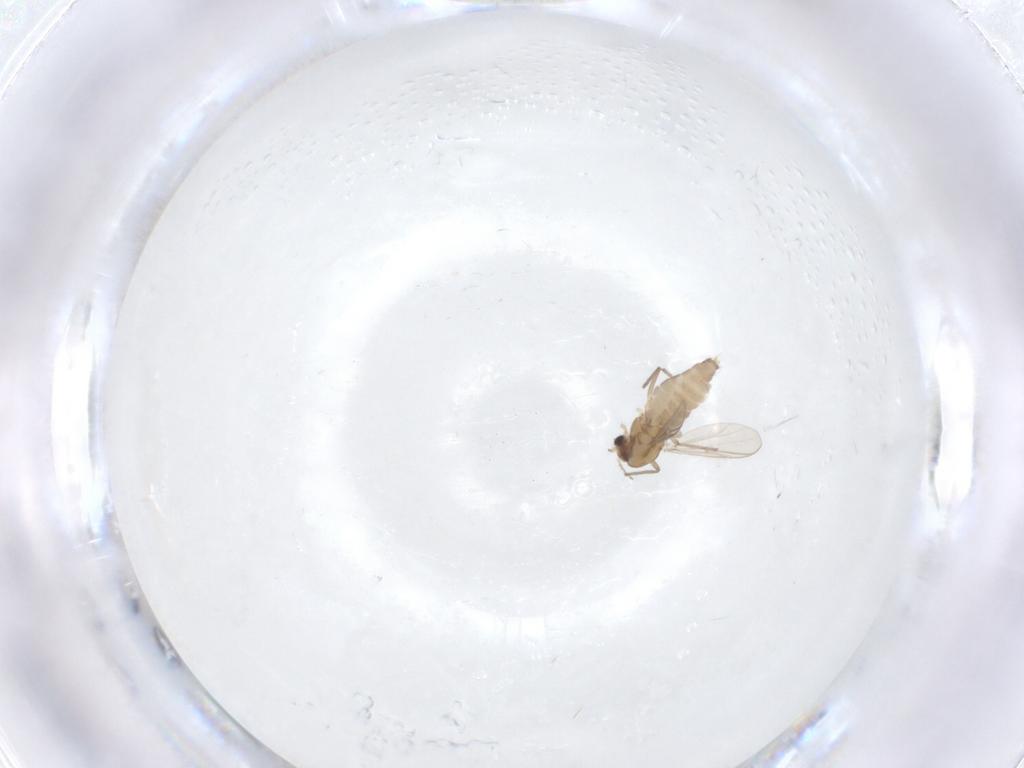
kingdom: Animalia
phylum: Arthropoda
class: Insecta
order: Diptera
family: Chironomidae
